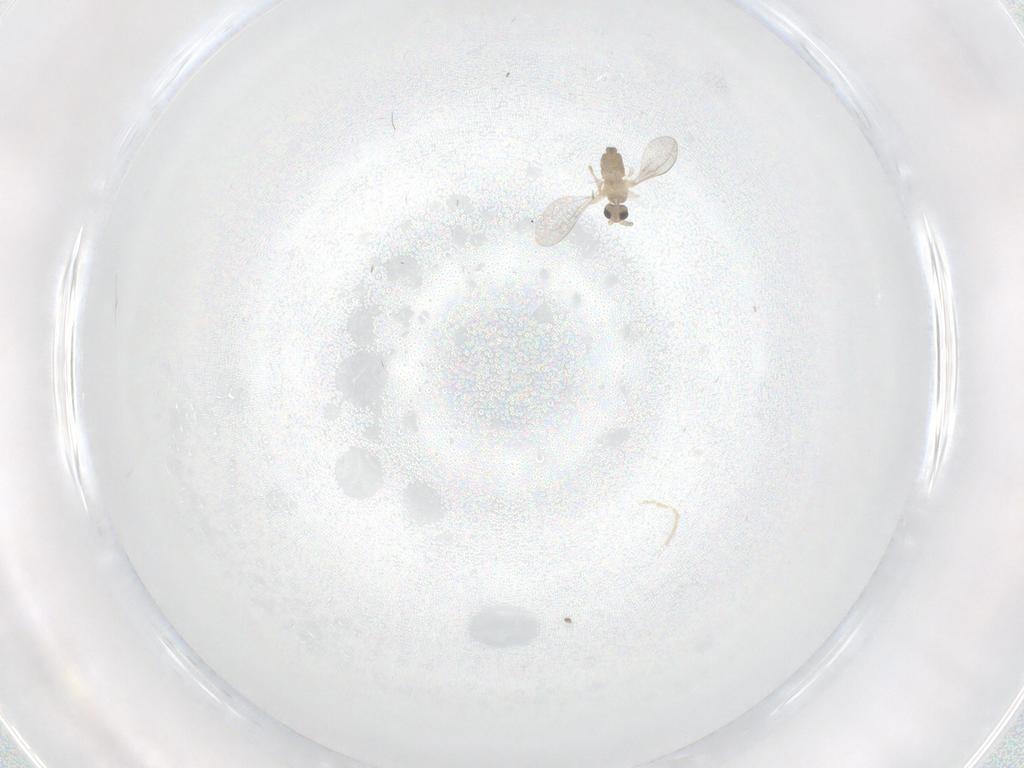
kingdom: Animalia
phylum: Arthropoda
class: Insecta
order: Diptera
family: Cecidomyiidae
